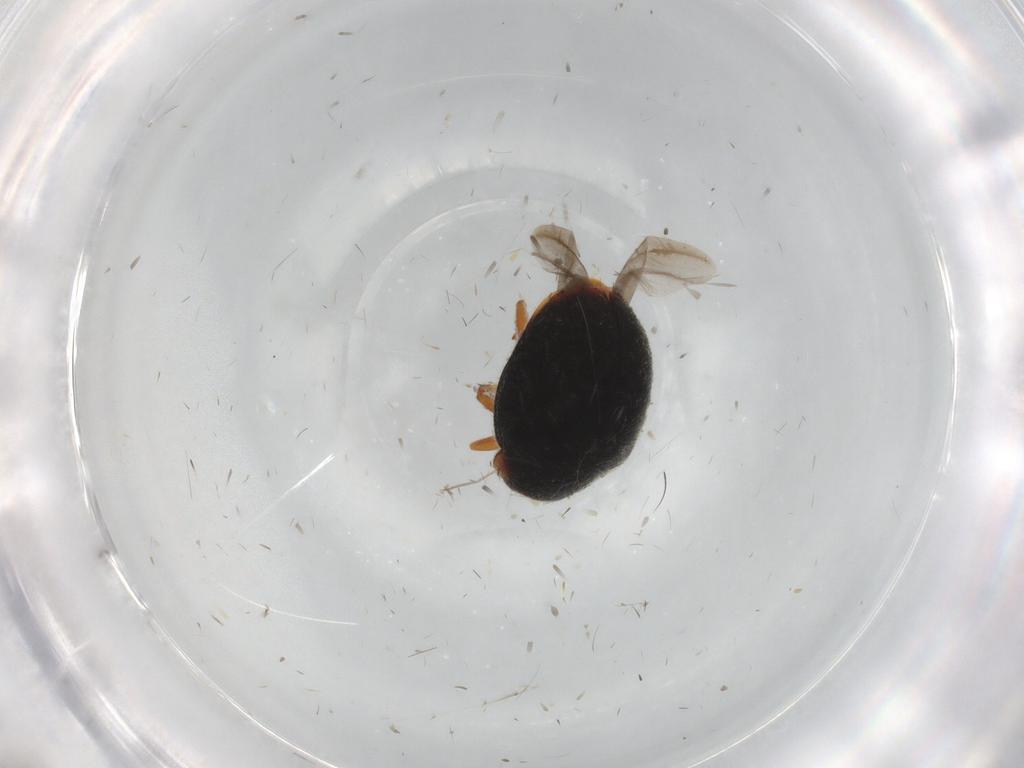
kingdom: Animalia
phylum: Arthropoda
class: Insecta
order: Coleoptera
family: Coccinellidae
